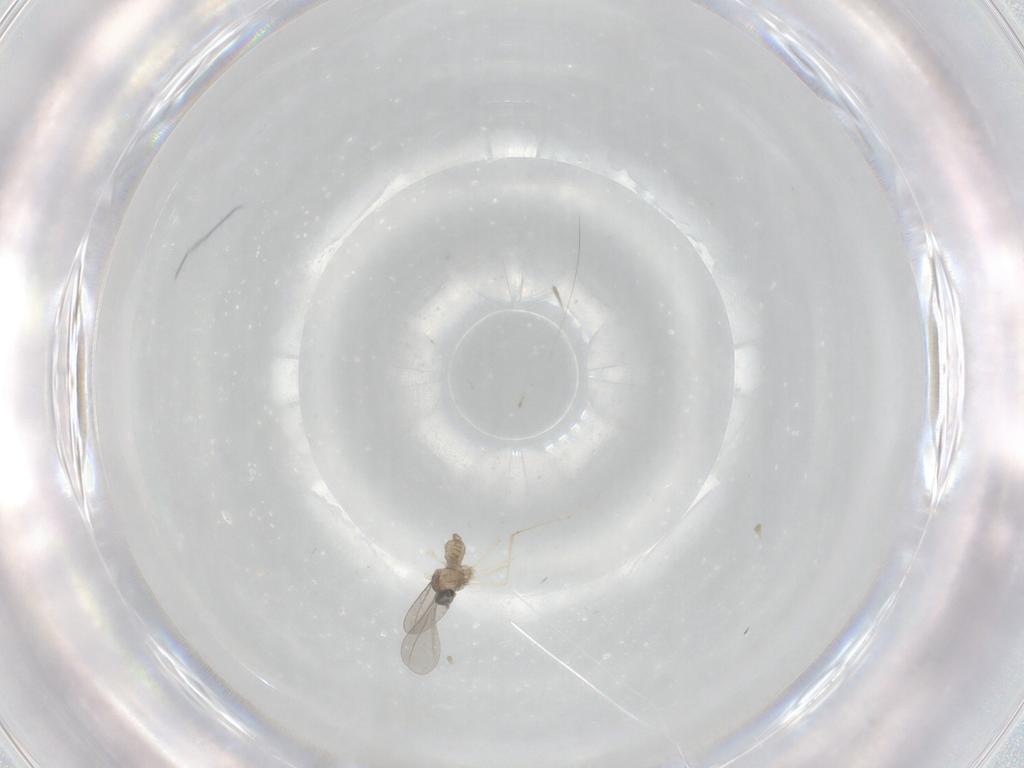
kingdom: Animalia
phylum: Arthropoda
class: Insecta
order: Diptera
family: Cecidomyiidae
